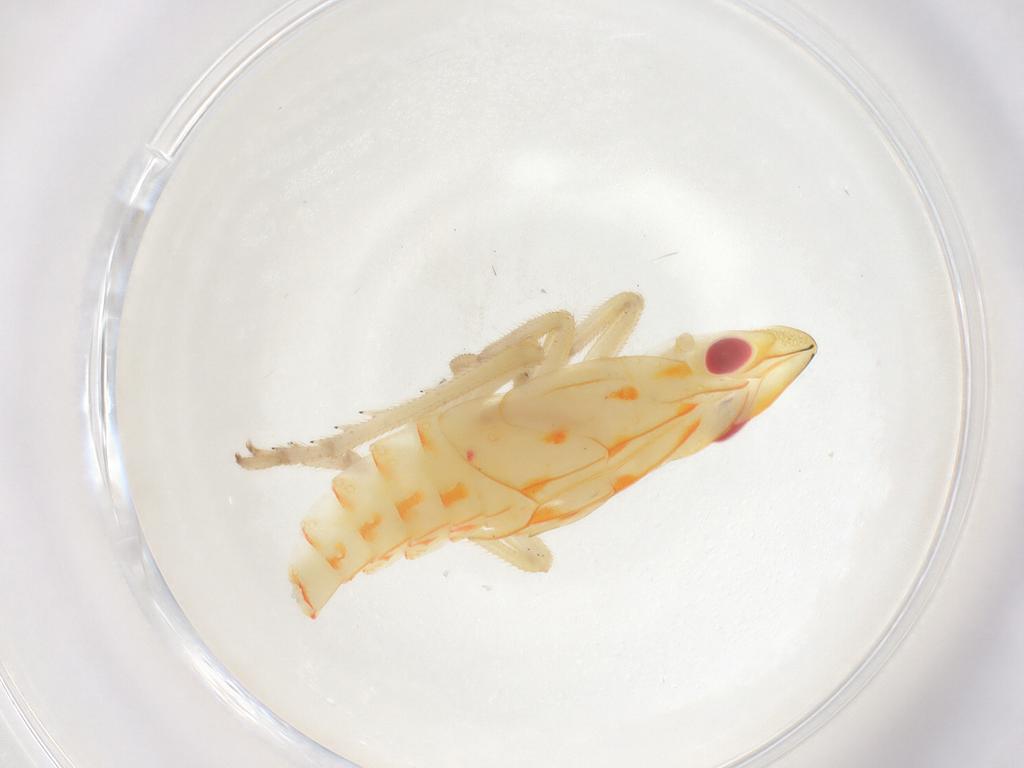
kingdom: Animalia
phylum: Arthropoda
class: Insecta
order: Hemiptera
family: Tropiduchidae
